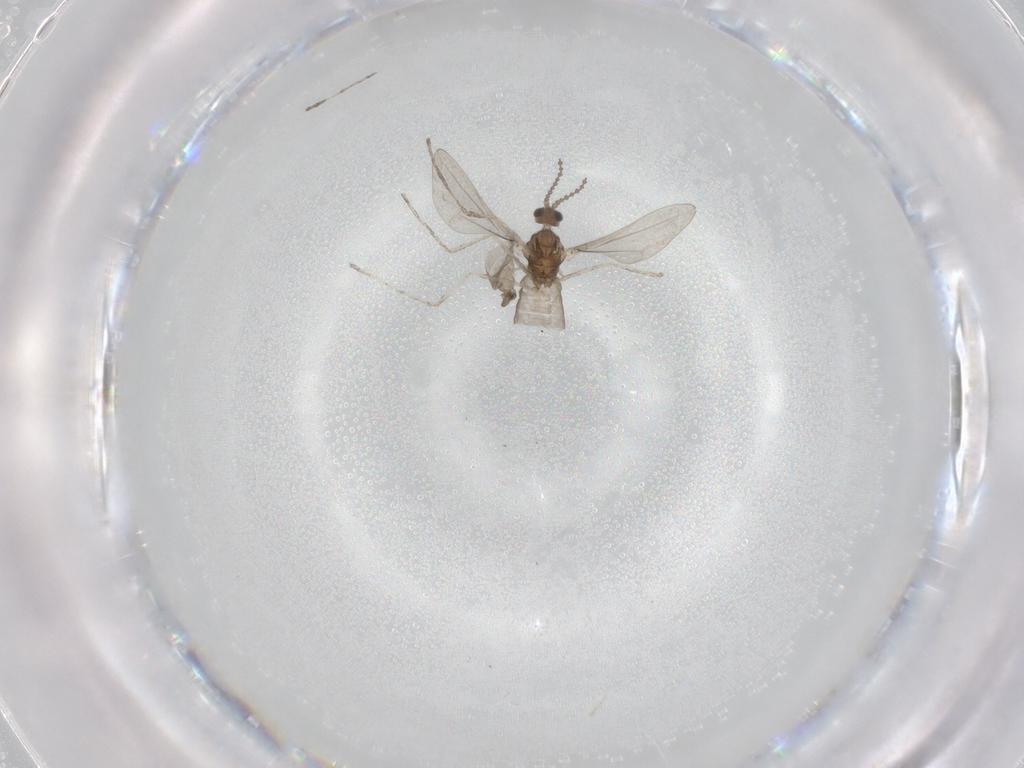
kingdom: Animalia
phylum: Arthropoda
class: Insecta
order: Diptera
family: Cecidomyiidae
